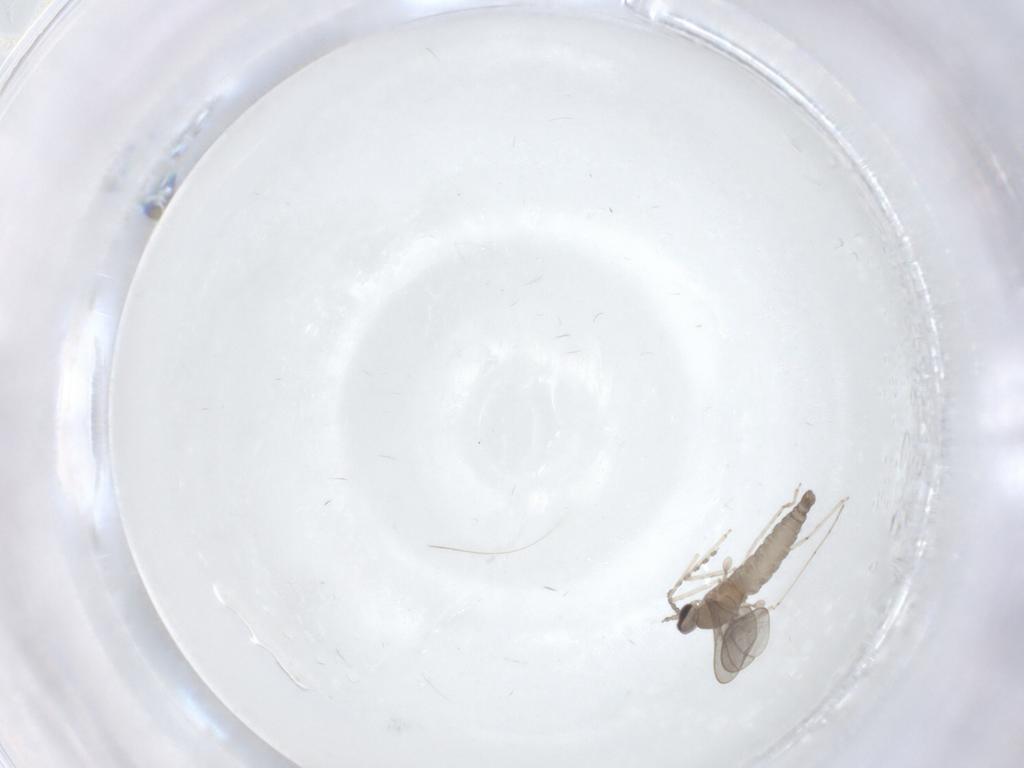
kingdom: Animalia
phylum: Arthropoda
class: Insecta
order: Diptera
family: Cecidomyiidae
